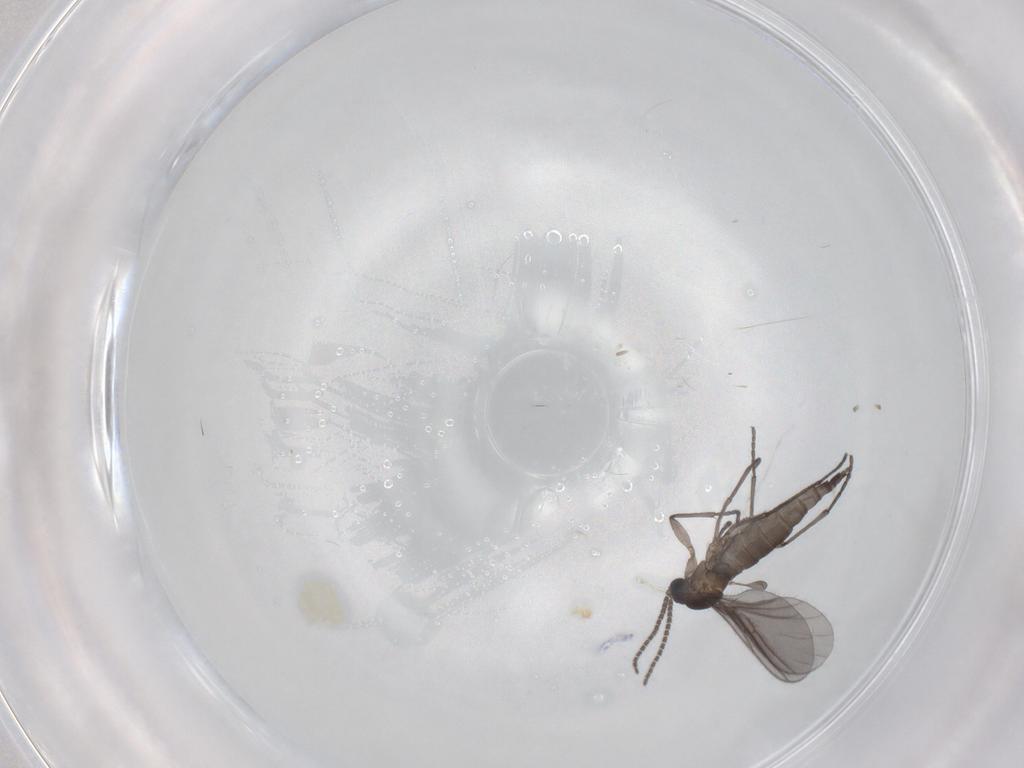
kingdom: Animalia
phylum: Arthropoda
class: Insecta
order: Diptera
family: Sciaridae
